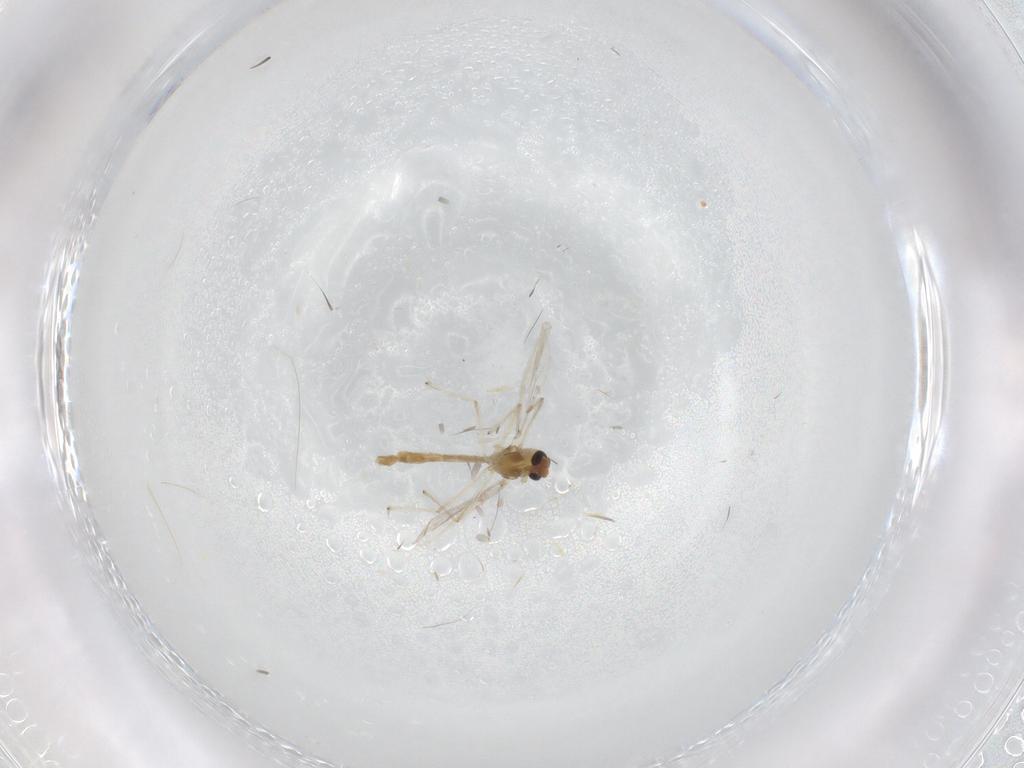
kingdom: Animalia
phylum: Arthropoda
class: Insecta
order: Diptera
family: Chironomidae
